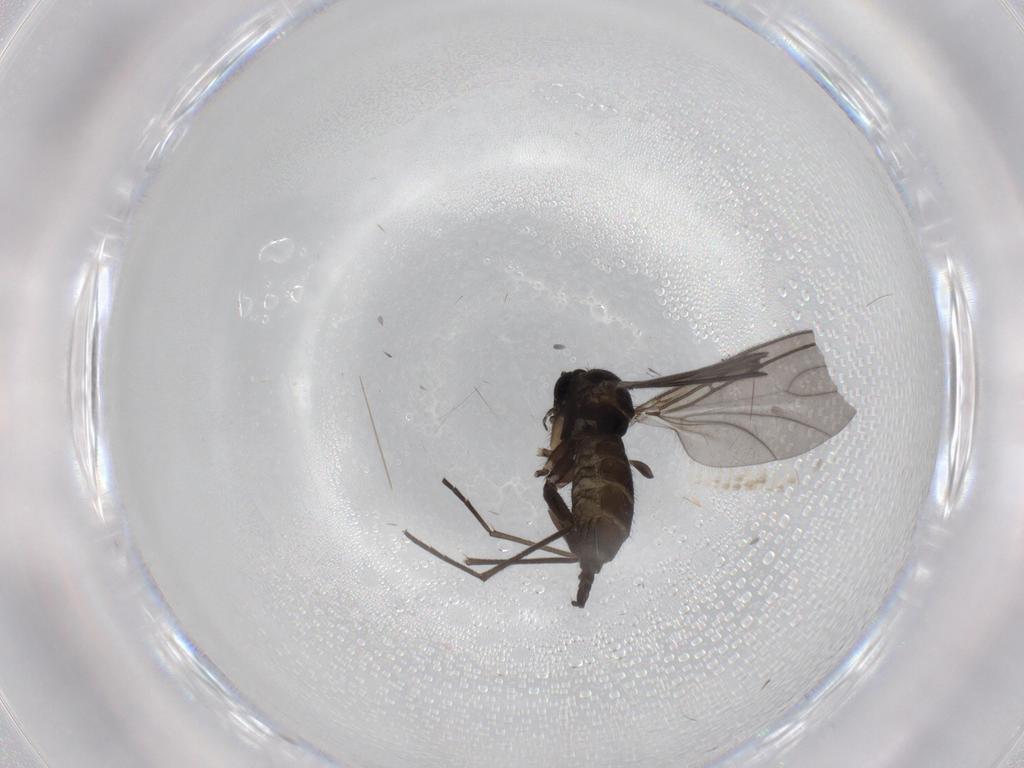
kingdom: Animalia
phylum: Arthropoda
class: Insecta
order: Diptera
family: Sciaridae
